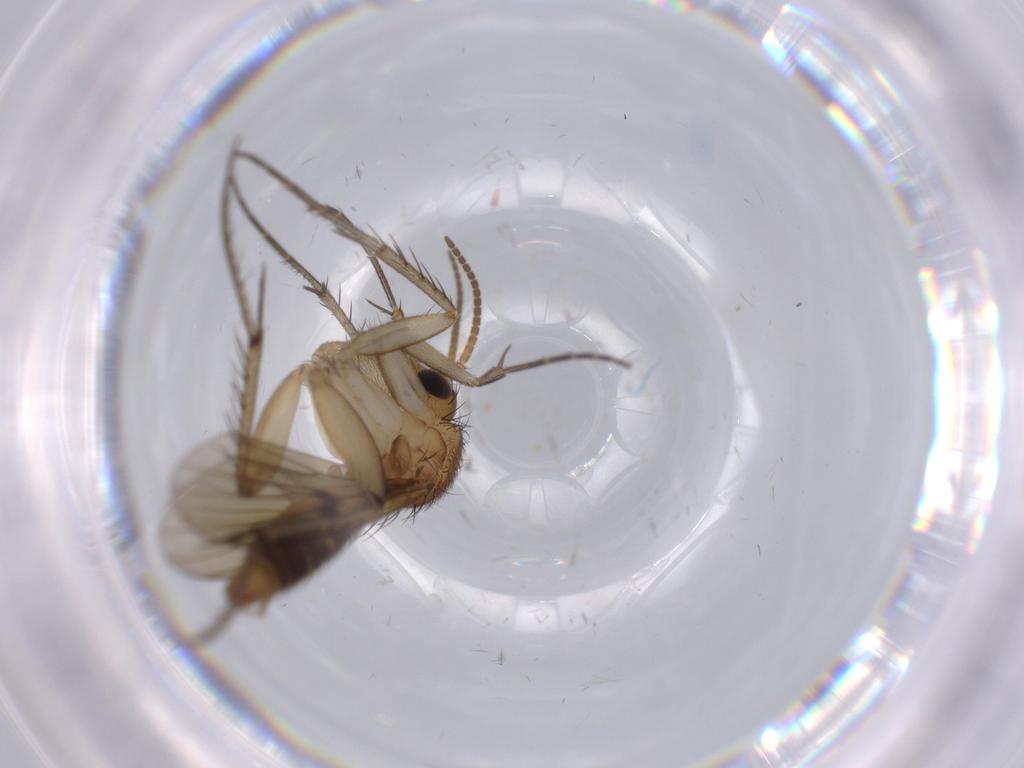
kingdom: Animalia
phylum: Arthropoda
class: Insecta
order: Diptera
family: Ceratopogonidae
